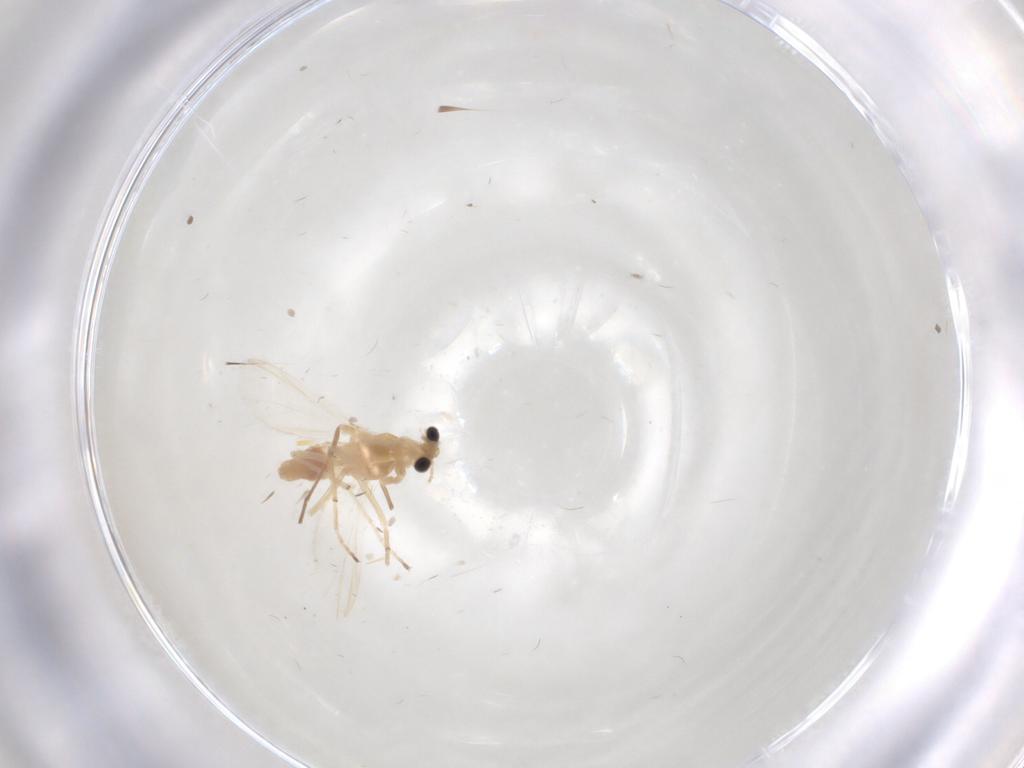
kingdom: Animalia
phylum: Arthropoda
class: Insecta
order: Diptera
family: Chironomidae
